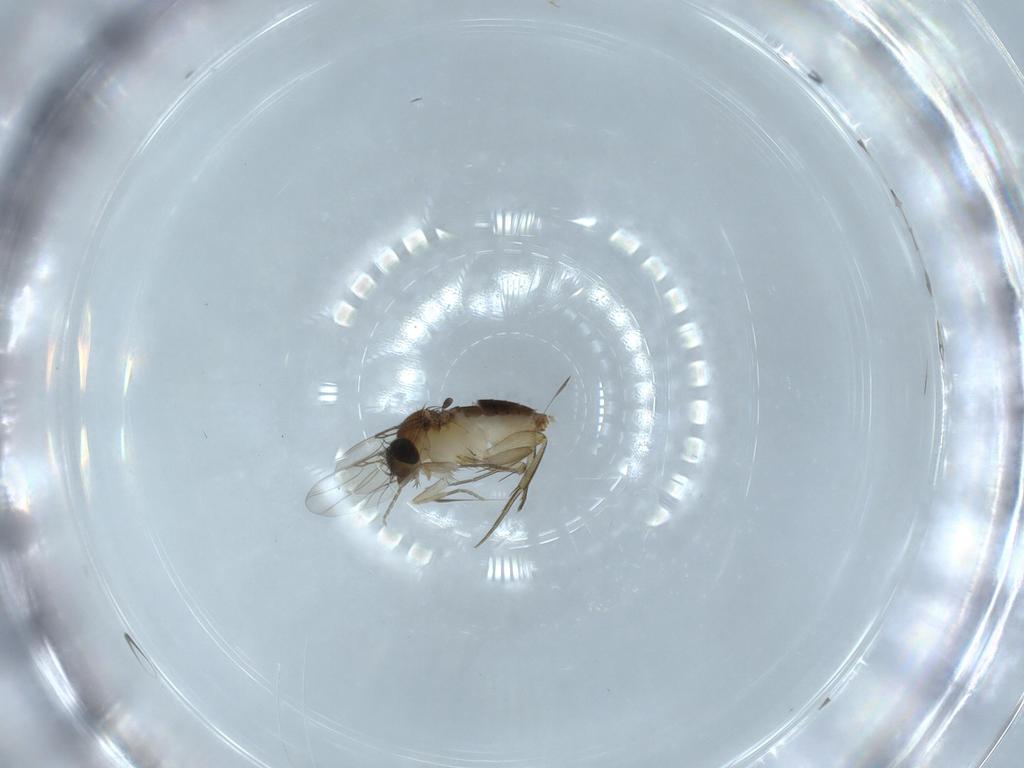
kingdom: Animalia
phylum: Arthropoda
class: Insecta
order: Diptera
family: Phoridae
